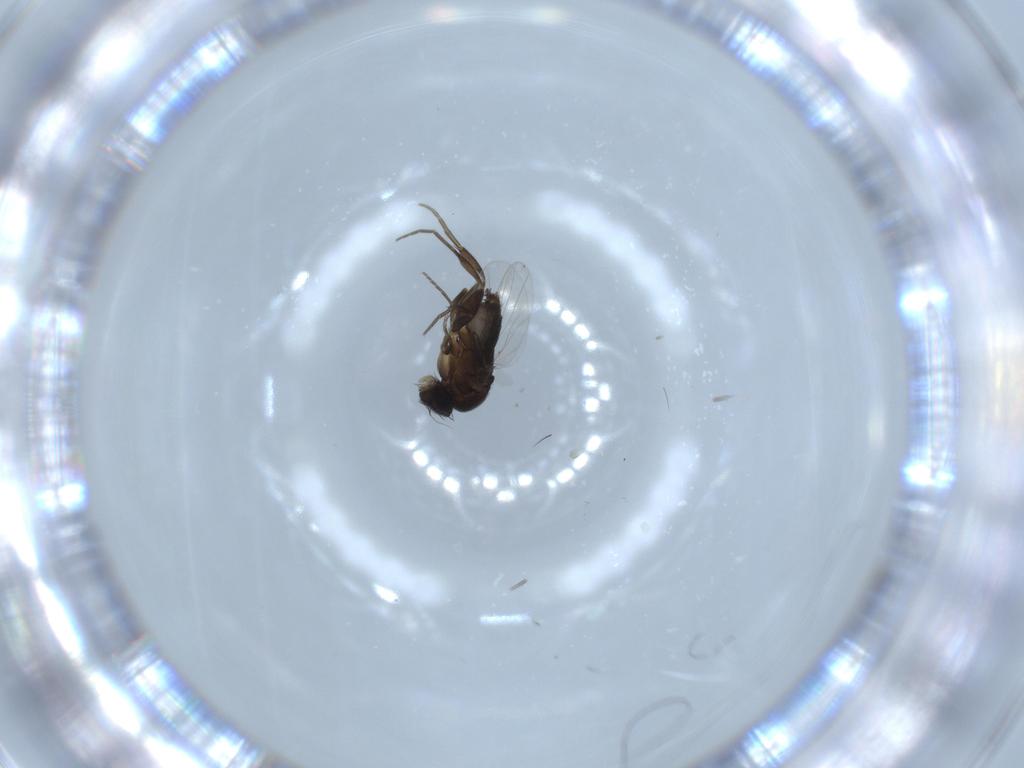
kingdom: Animalia
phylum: Arthropoda
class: Insecta
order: Diptera
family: Phoridae
